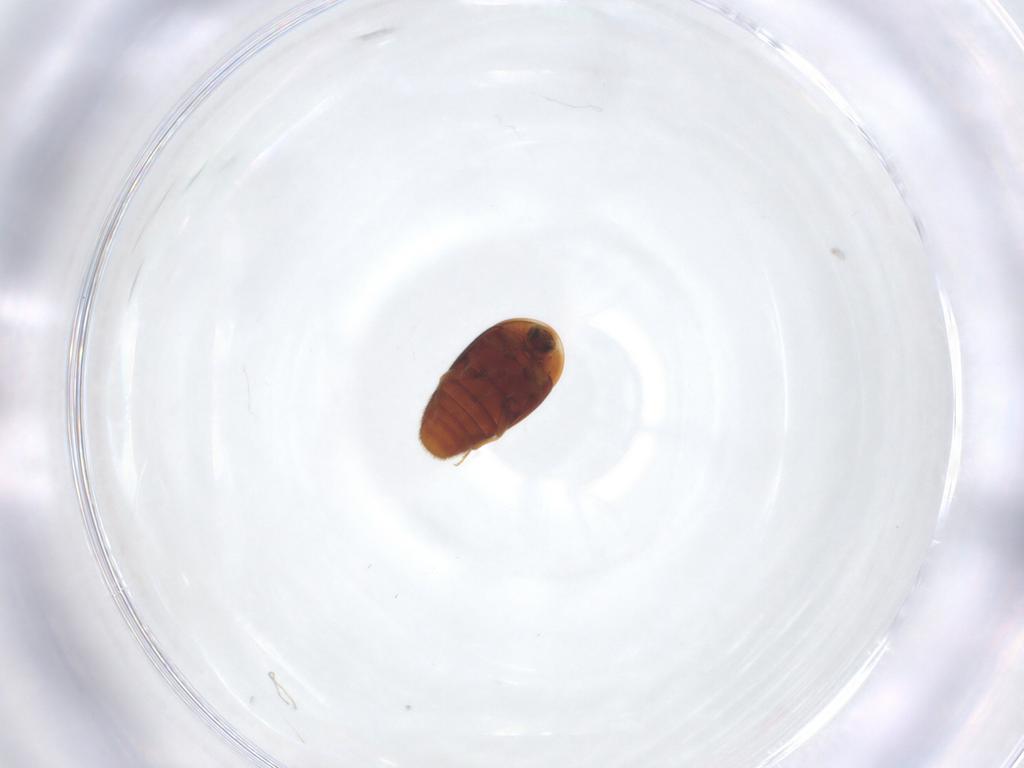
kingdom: Animalia
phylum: Arthropoda
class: Insecta
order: Coleoptera
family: Corylophidae
